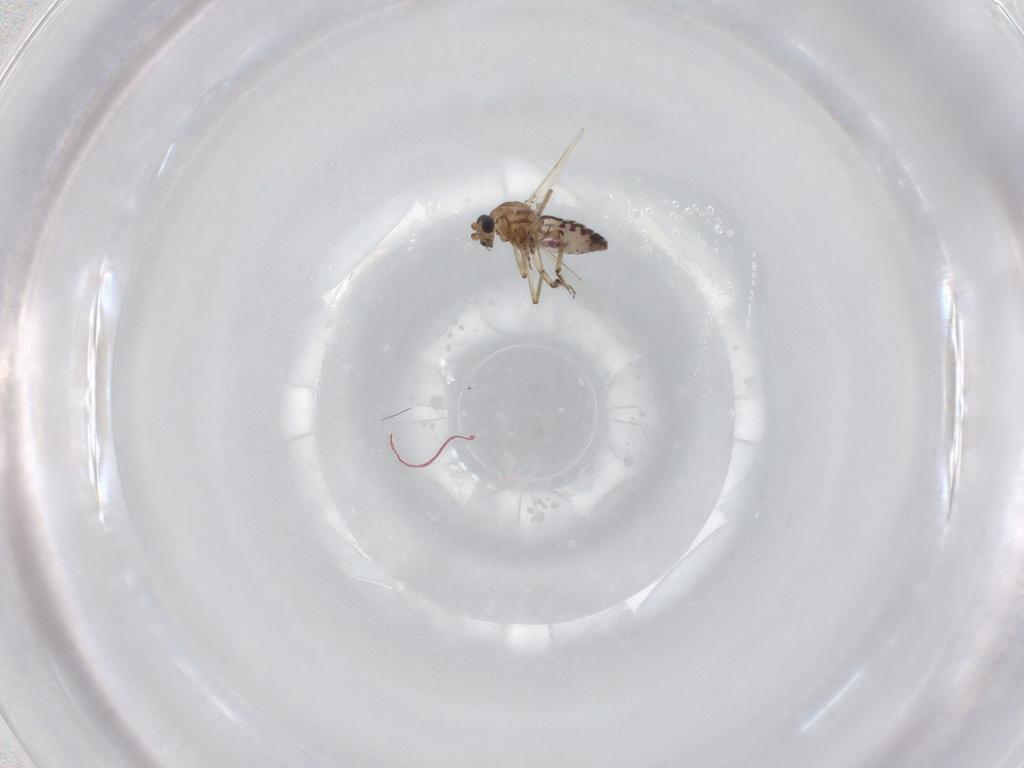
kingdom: Animalia
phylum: Arthropoda
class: Insecta
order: Diptera
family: Ceratopogonidae
